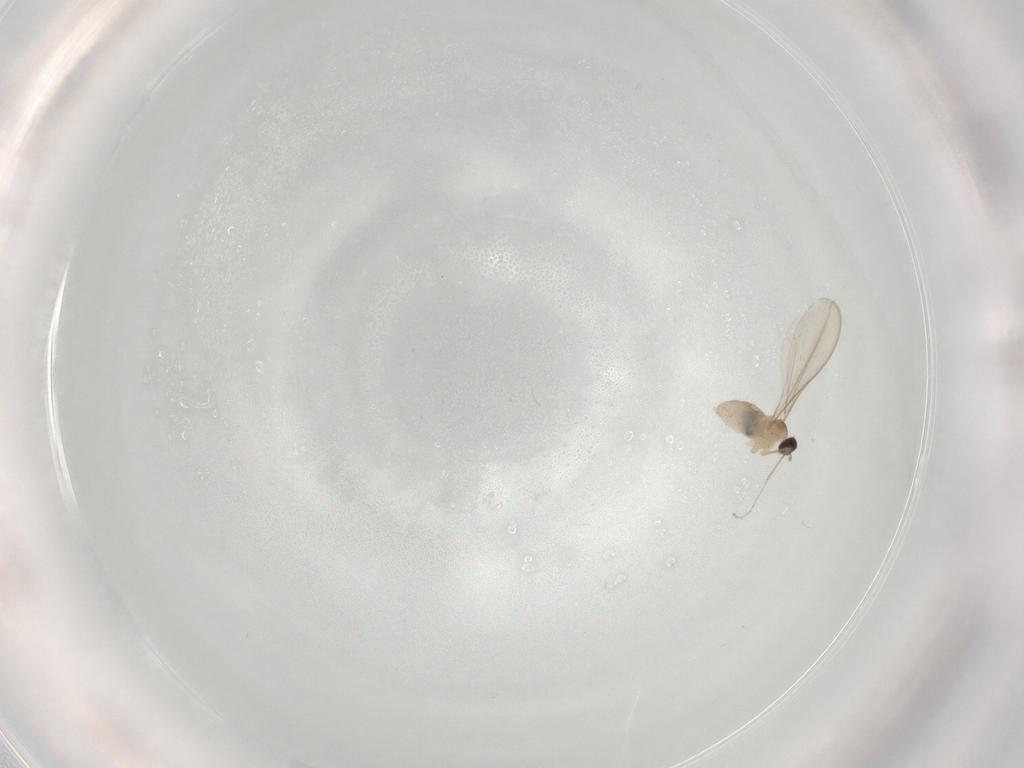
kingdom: Animalia
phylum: Arthropoda
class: Insecta
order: Diptera
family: Cecidomyiidae
